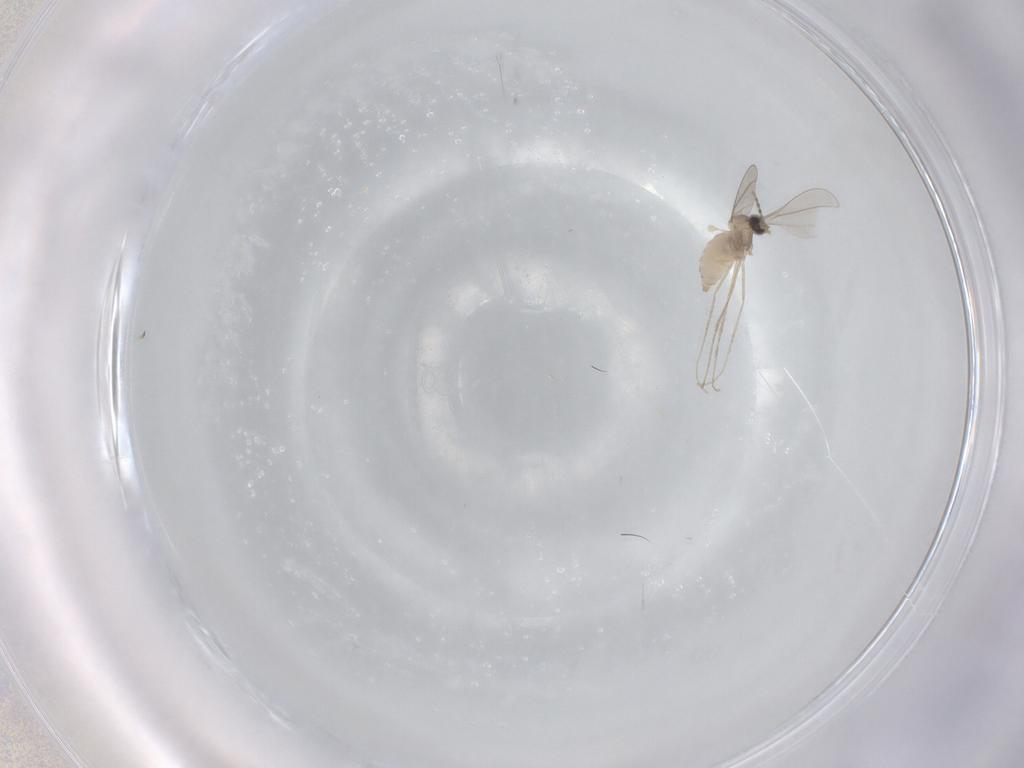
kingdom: Animalia
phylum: Arthropoda
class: Insecta
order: Diptera
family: Cecidomyiidae
